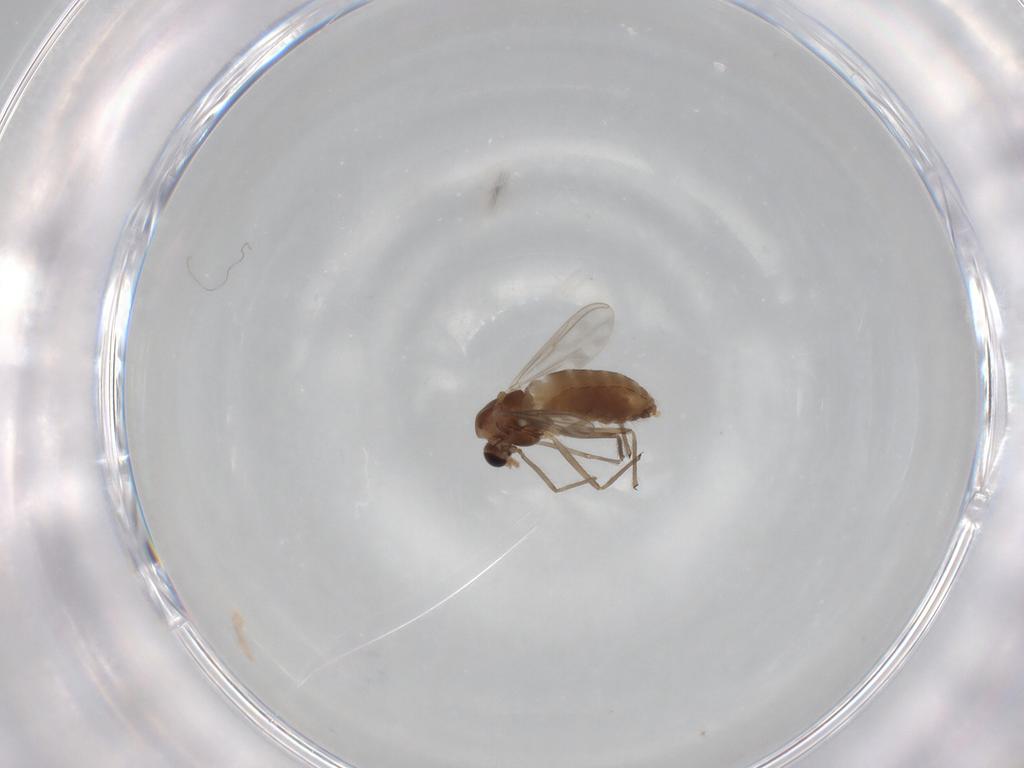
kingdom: Animalia
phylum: Arthropoda
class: Insecta
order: Diptera
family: Chironomidae
